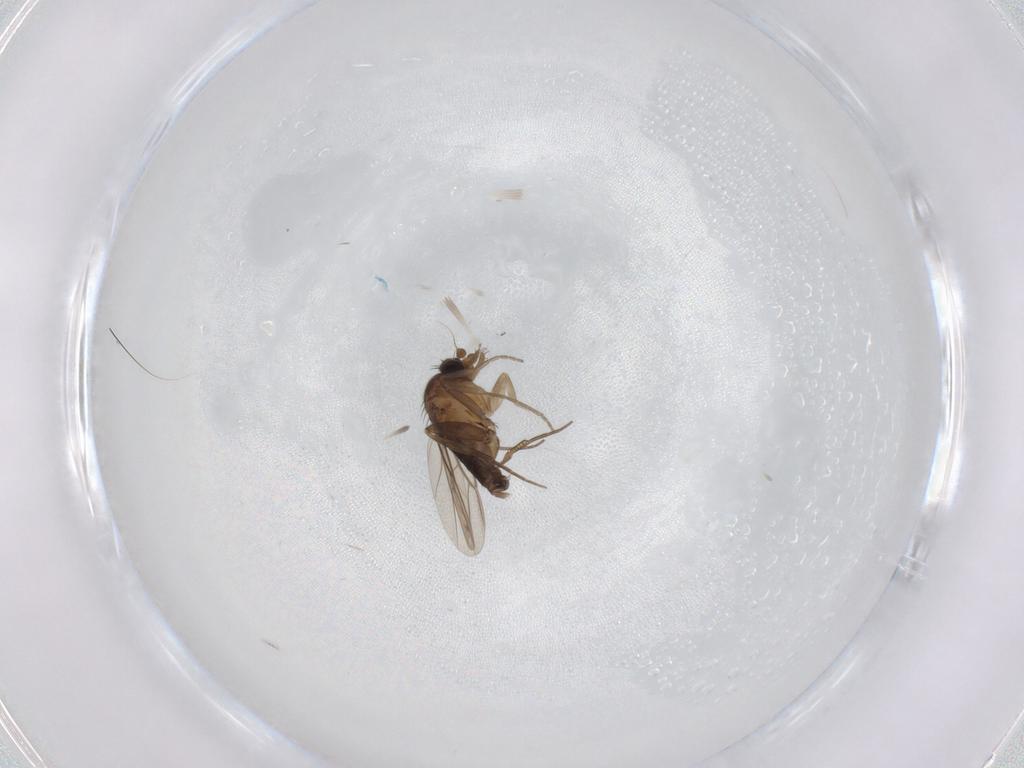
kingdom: Animalia
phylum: Arthropoda
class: Insecta
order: Diptera
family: Phoridae
